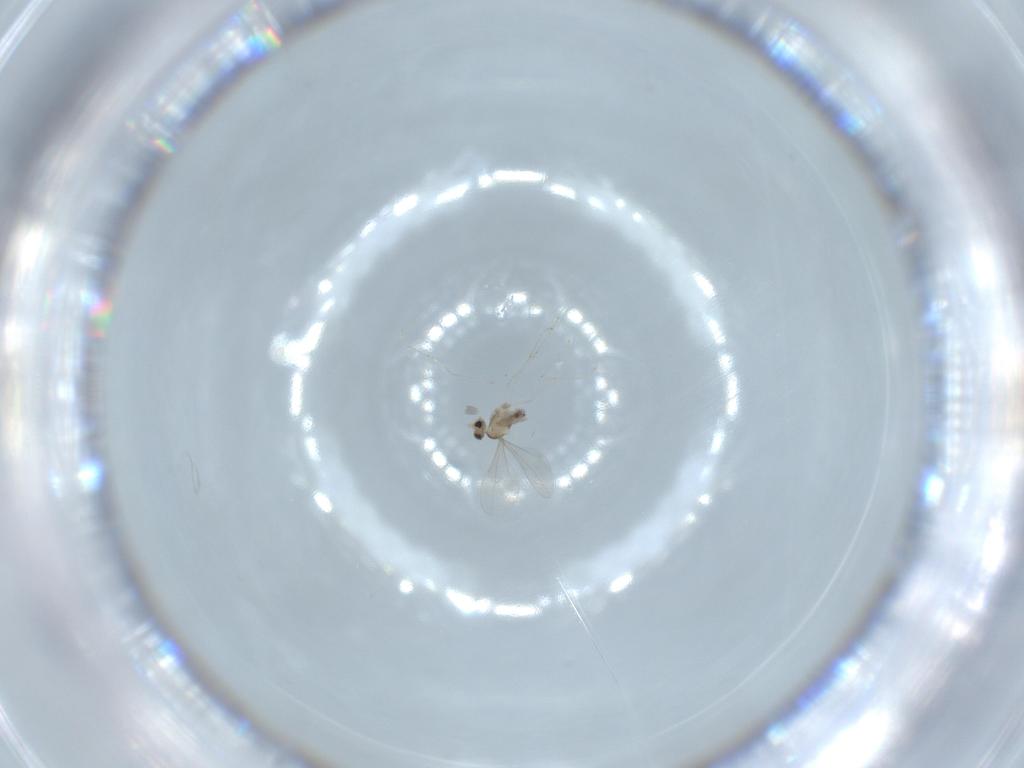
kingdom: Animalia
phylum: Arthropoda
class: Insecta
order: Diptera
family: Cecidomyiidae
